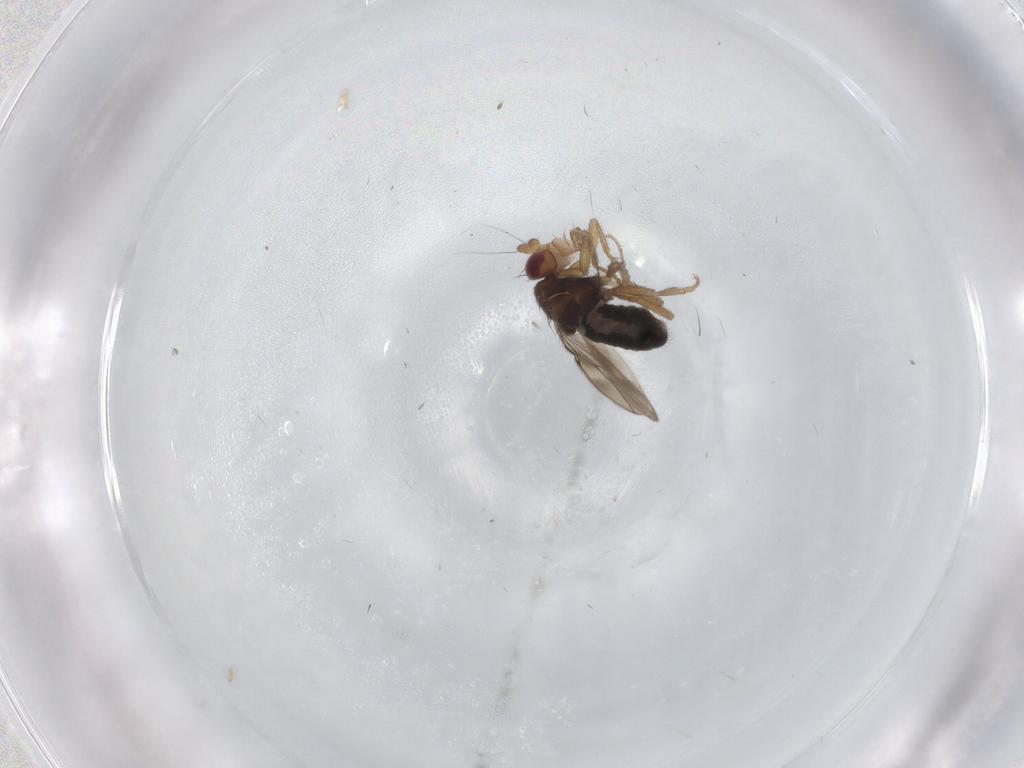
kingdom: Animalia
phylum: Arthropoda
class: Insecta
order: Diptera
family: Sphaeroceridae
